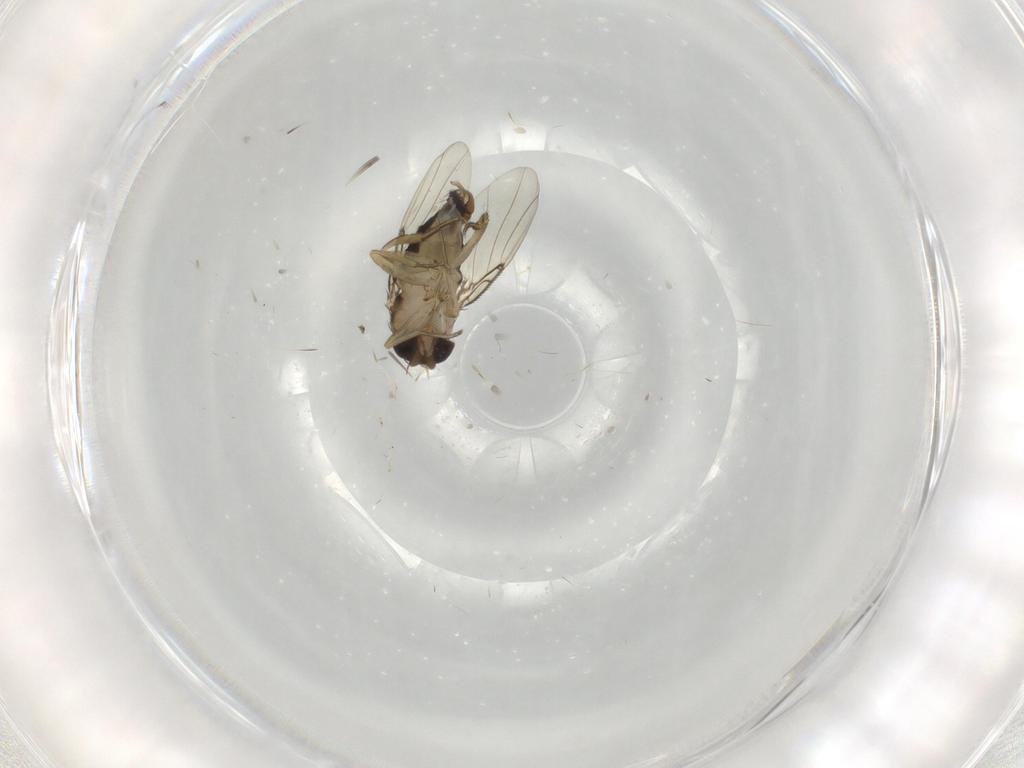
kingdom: Animalia
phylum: Arthropoda
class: Insecta
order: Diptera
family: Phoridae
